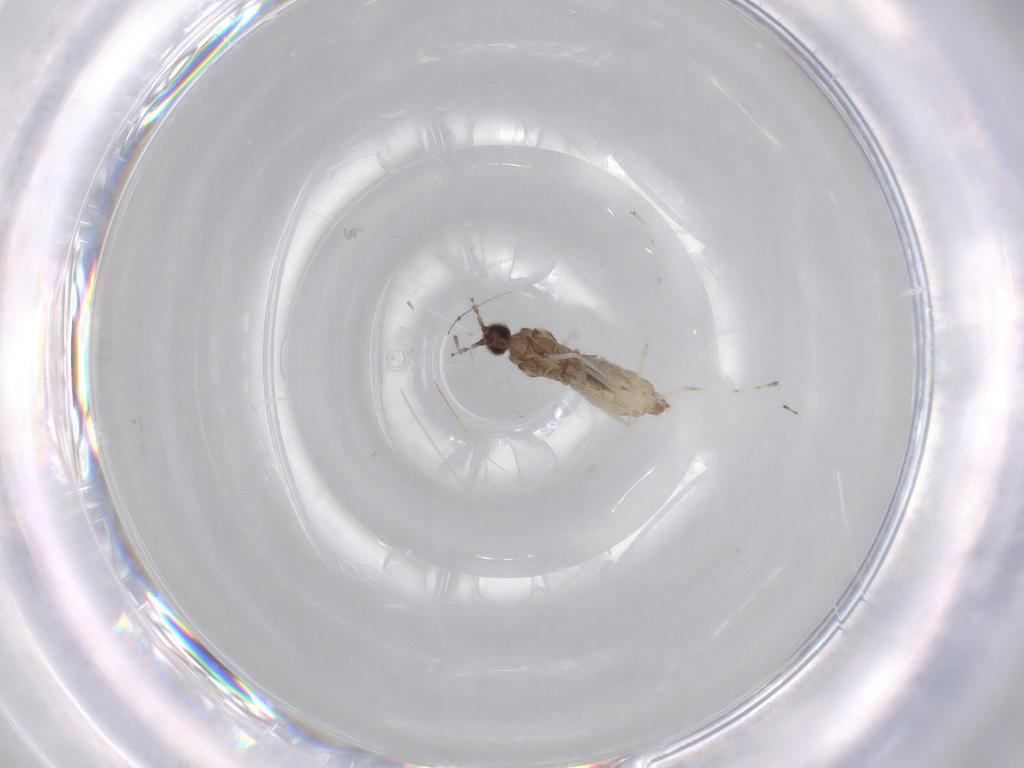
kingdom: Animalia
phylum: Arthropoda
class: Insecta
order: Diptera
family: Cecidomyiidae
